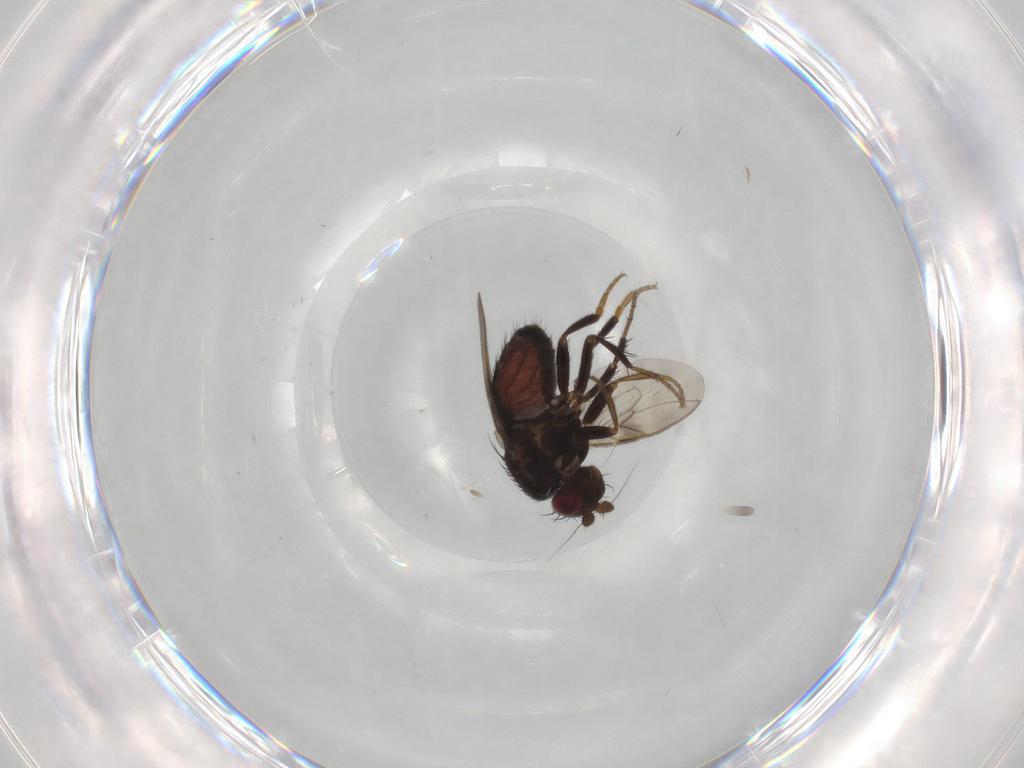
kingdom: Animalia
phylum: Arthropoda
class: Insecta
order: Diptera
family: Sphaeroceridae
